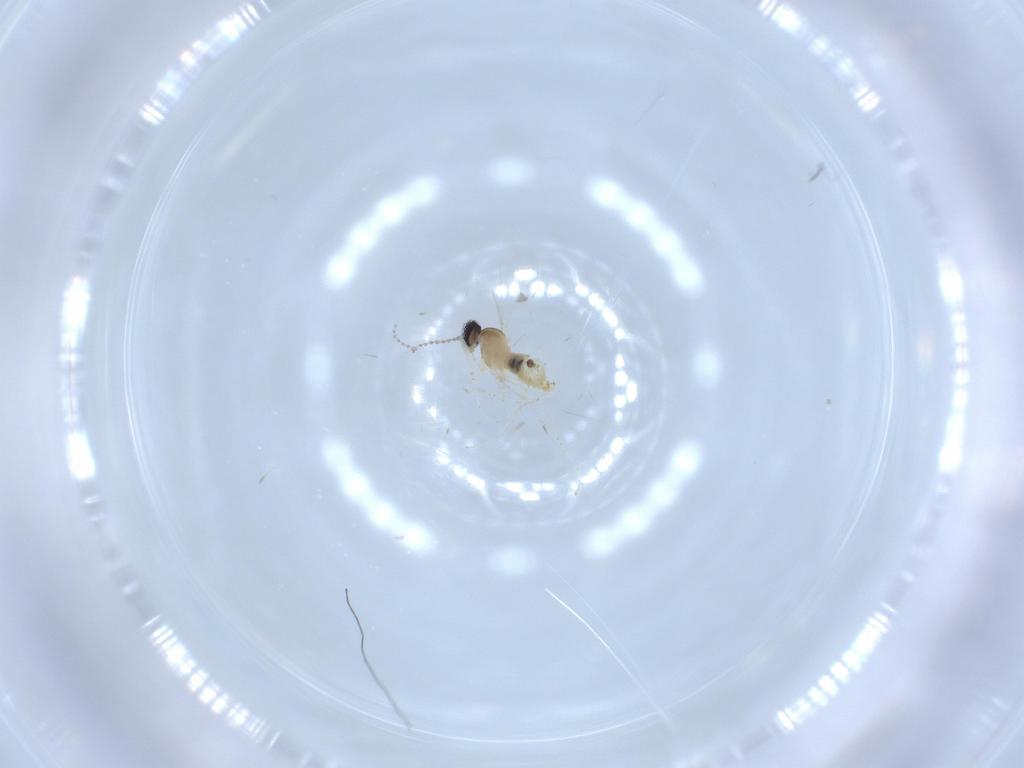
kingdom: Animalia
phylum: Arthropoda
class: Insecta
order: Diptera
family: Cecidomyiidae
